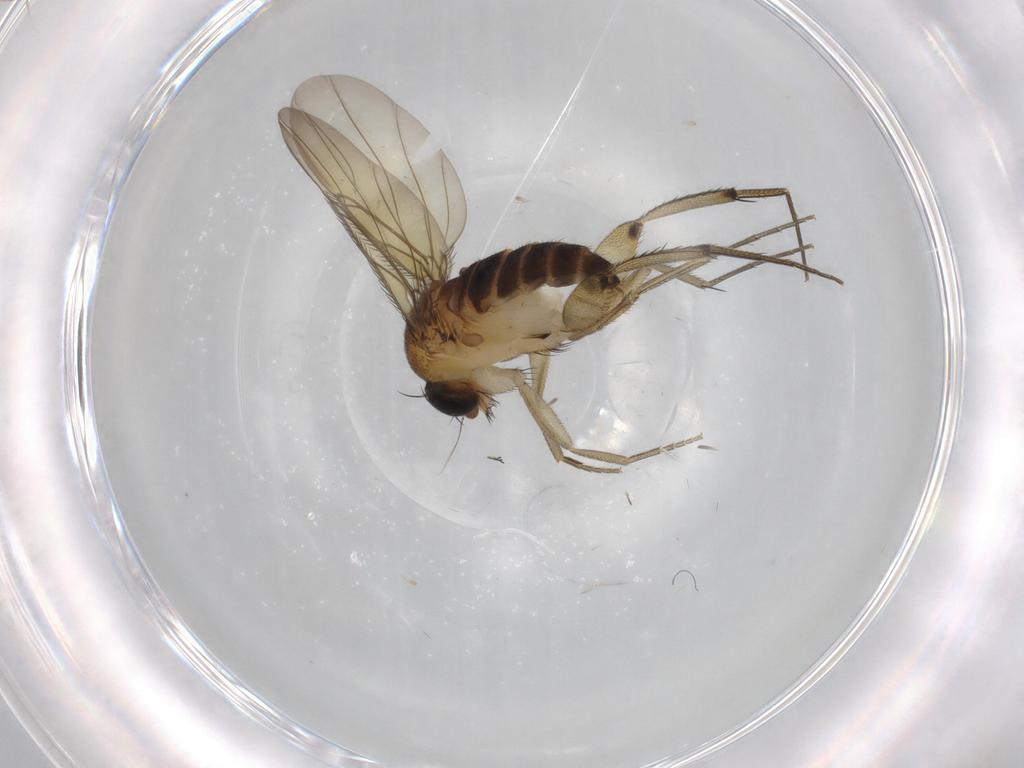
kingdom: Animalia
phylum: Arthropoda
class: Insecta
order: Diptera
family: Phoridae
